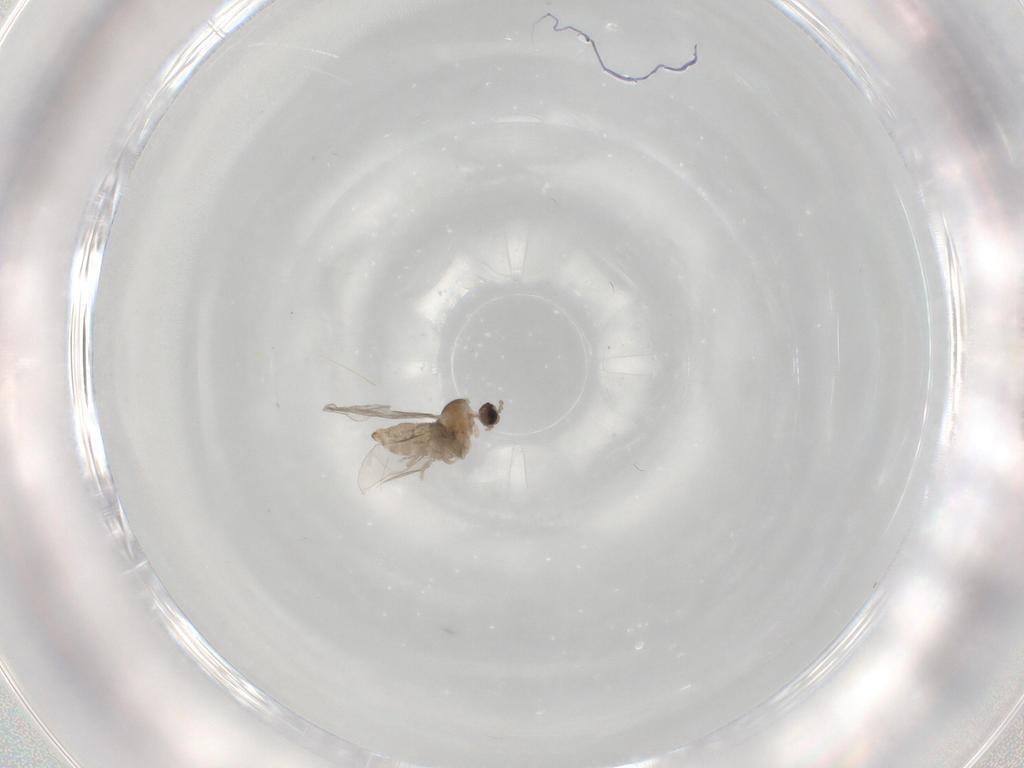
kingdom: Animalia
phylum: Arthropoda
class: Insecta
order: Diptera
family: Cecidomyiidae
